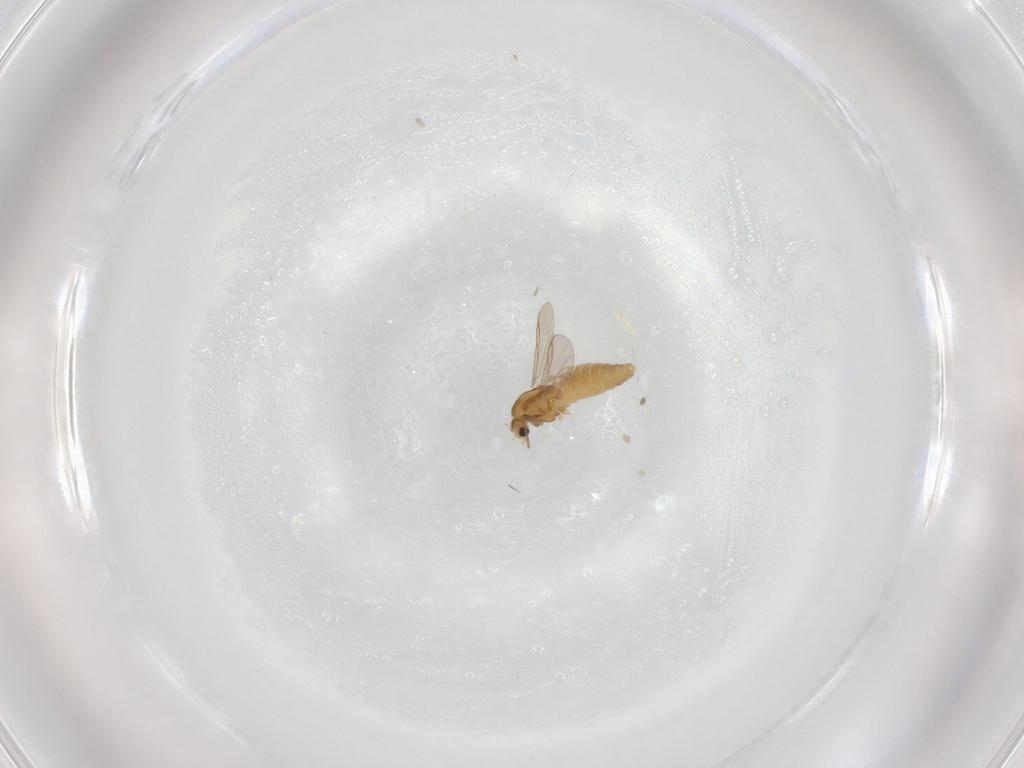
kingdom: Animalia
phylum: Arthropoda
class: Insecta
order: Diptera
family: Chironomidae
